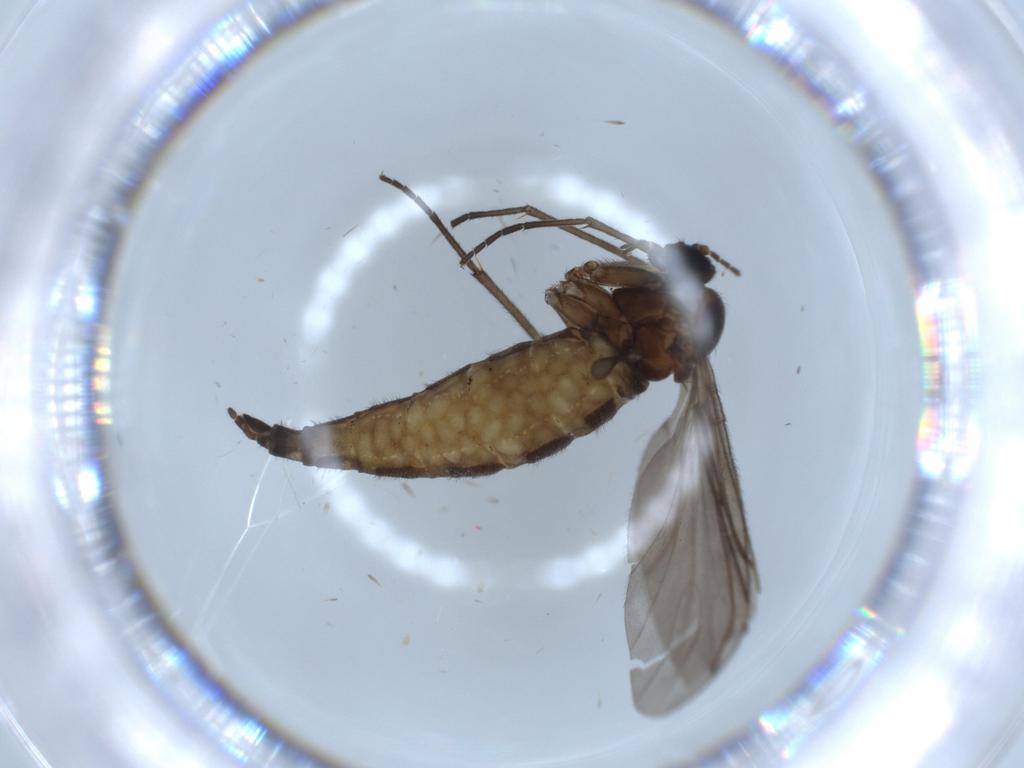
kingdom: Animalia
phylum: Arthropoda
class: Insecta
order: Diptera
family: Sciaridae
